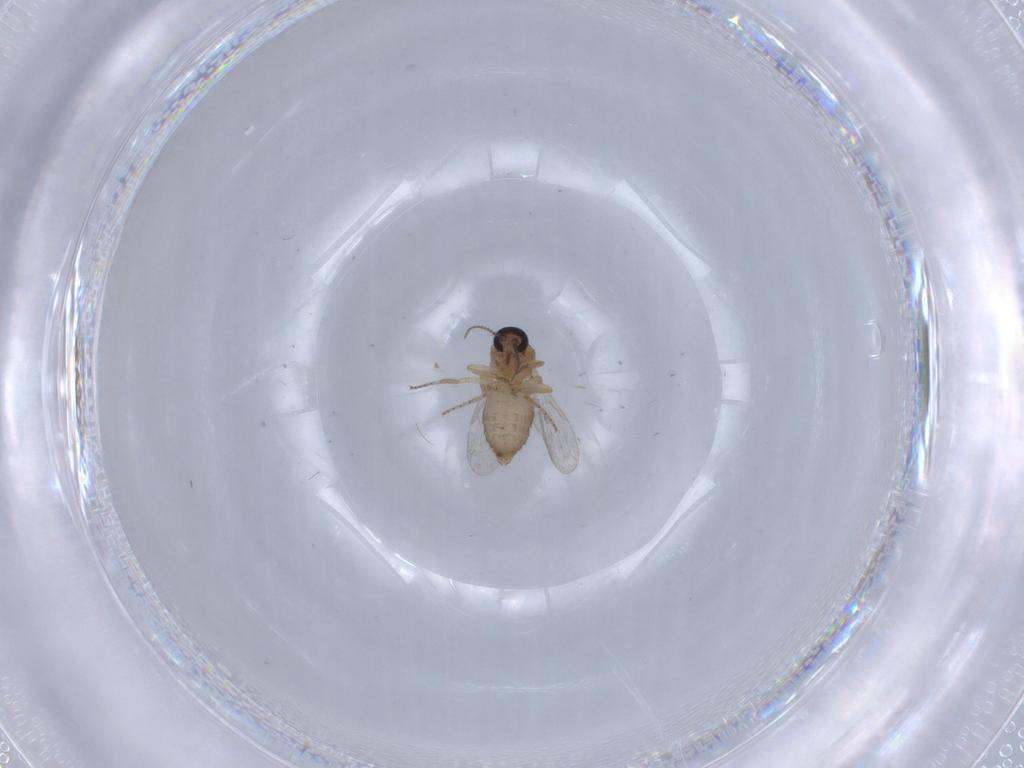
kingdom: Animalia
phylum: Arthropoda
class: Insecta
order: Diptera
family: Ceratopogonidae
